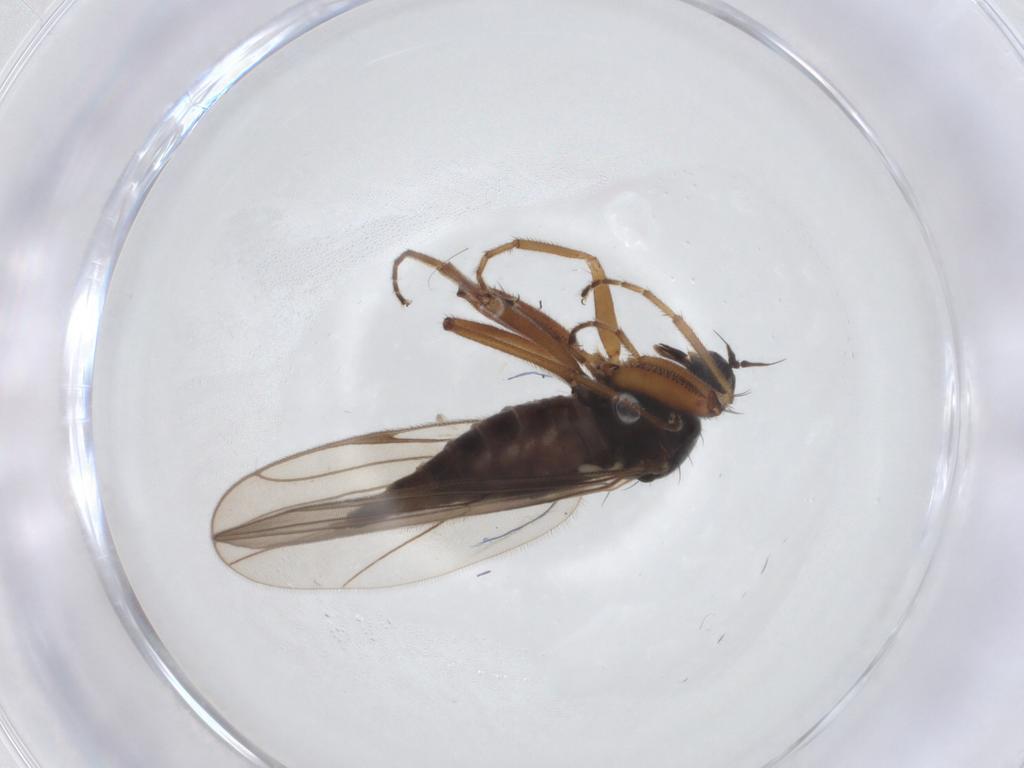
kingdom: Animalia
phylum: Arthropoda
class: Insecta
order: Diptera
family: Hybotidae
